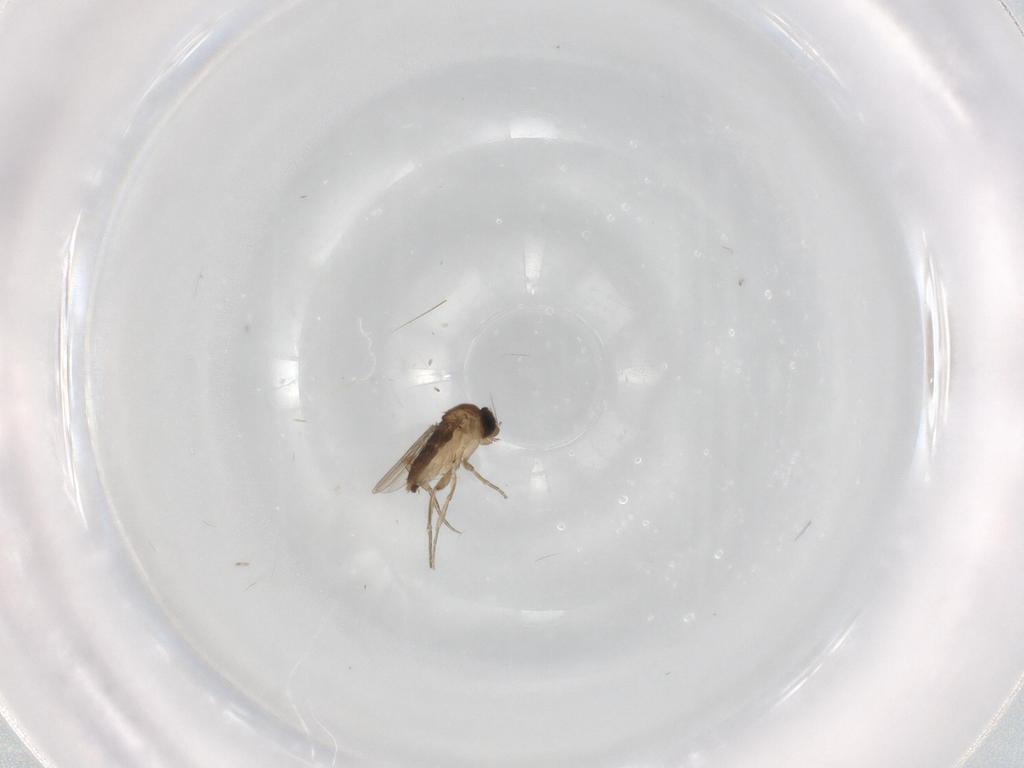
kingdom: Animalia
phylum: Arthropoda
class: Insecta
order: Diptera
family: Phoridae
